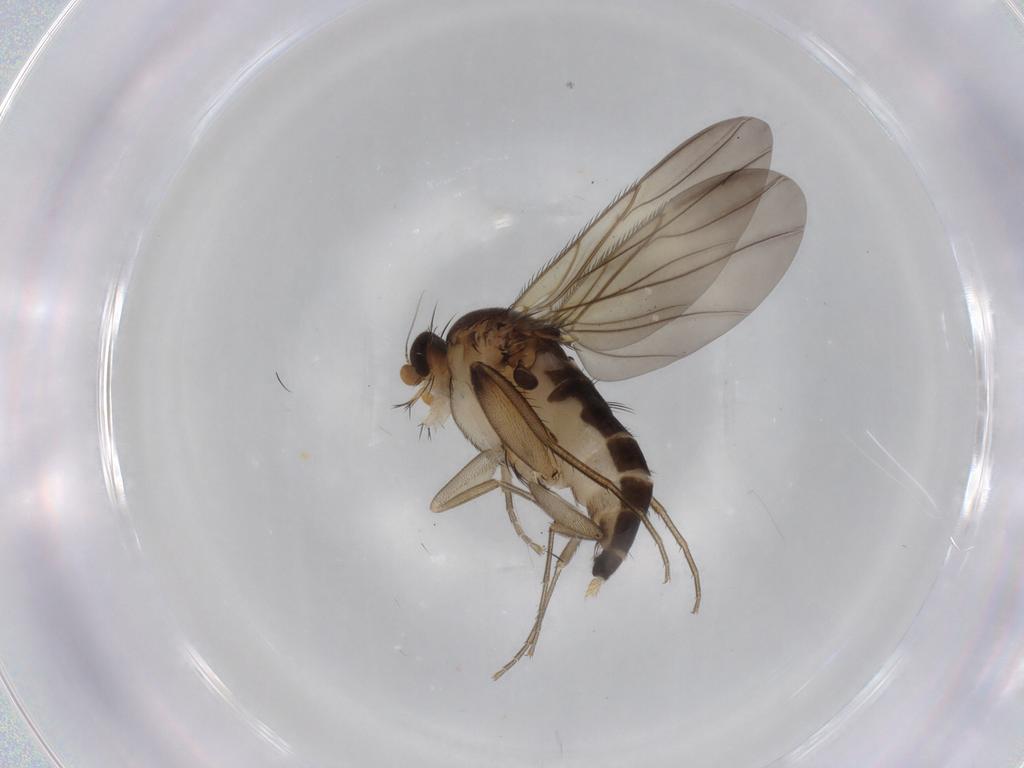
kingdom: Animalia
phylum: Arthropoda
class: Insecta
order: Diptera
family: Phoridae
